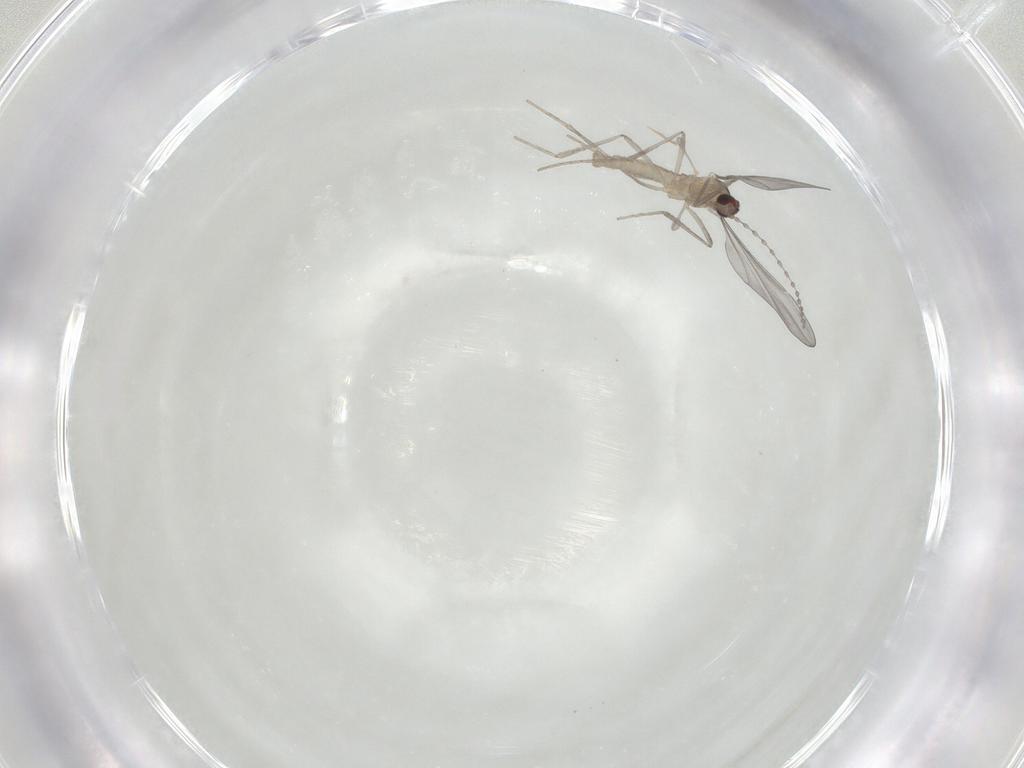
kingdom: Animalia
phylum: Arthropoda
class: Insecta
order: Diptera
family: Cecidomyiidae
